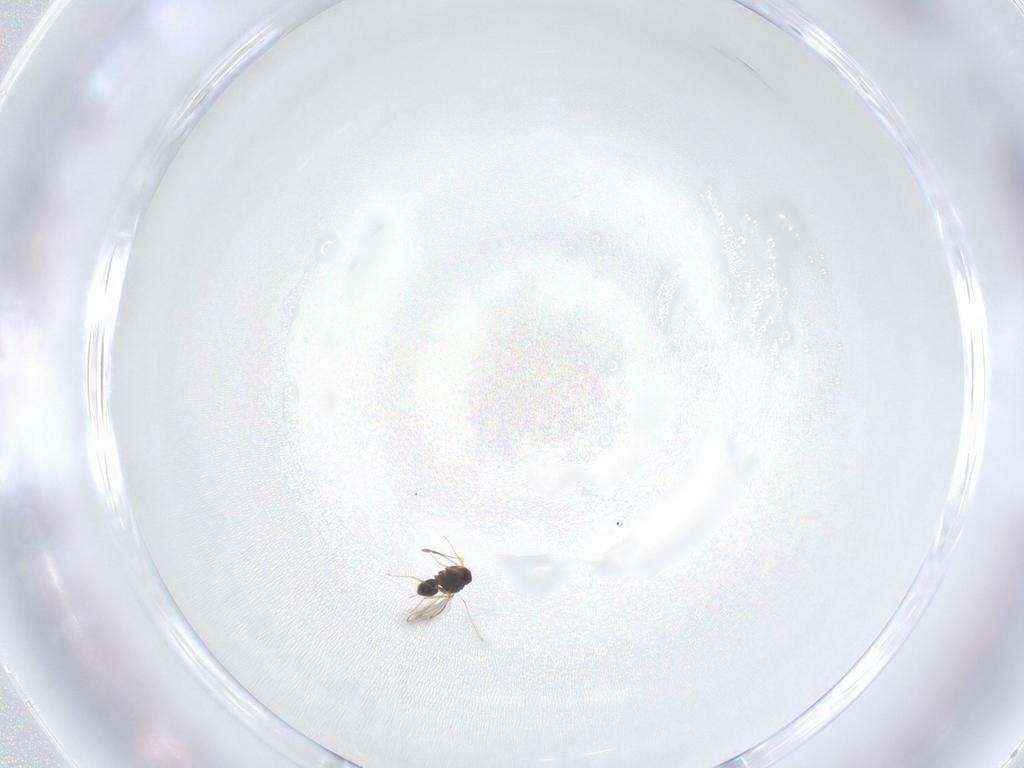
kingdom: Animalia
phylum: Arthropoda
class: Insecta
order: Hymenoptera
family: Mymaridae
